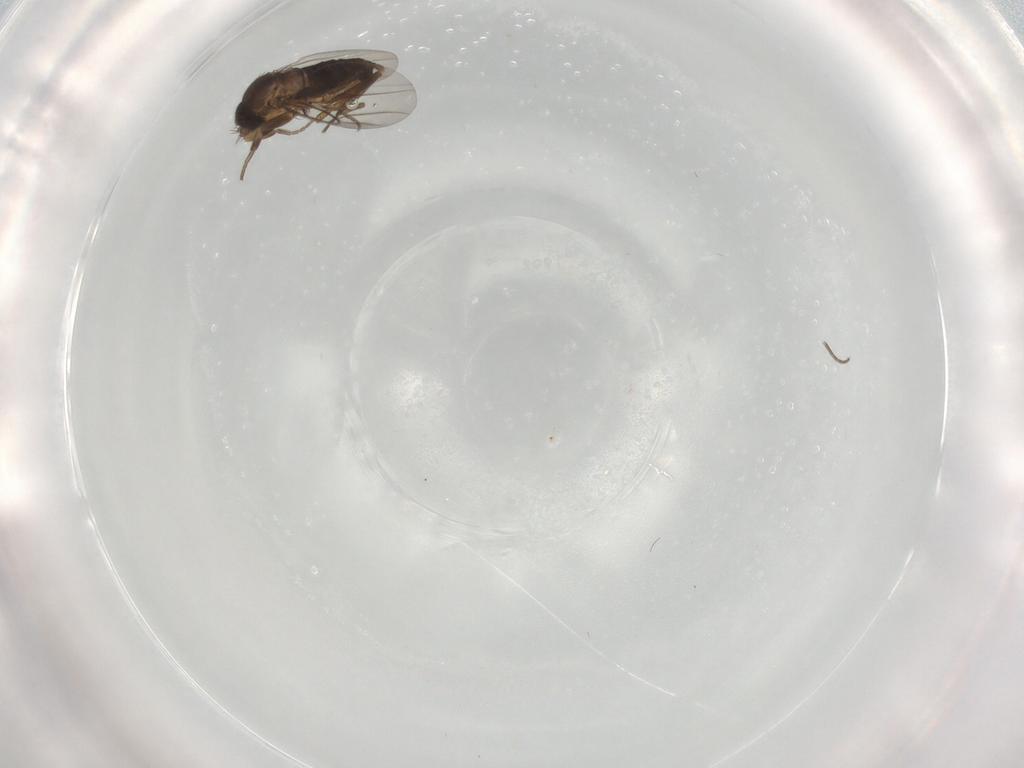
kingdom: Animalia
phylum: Arthropoda
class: Insecta
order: Diptera
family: Phoridae
